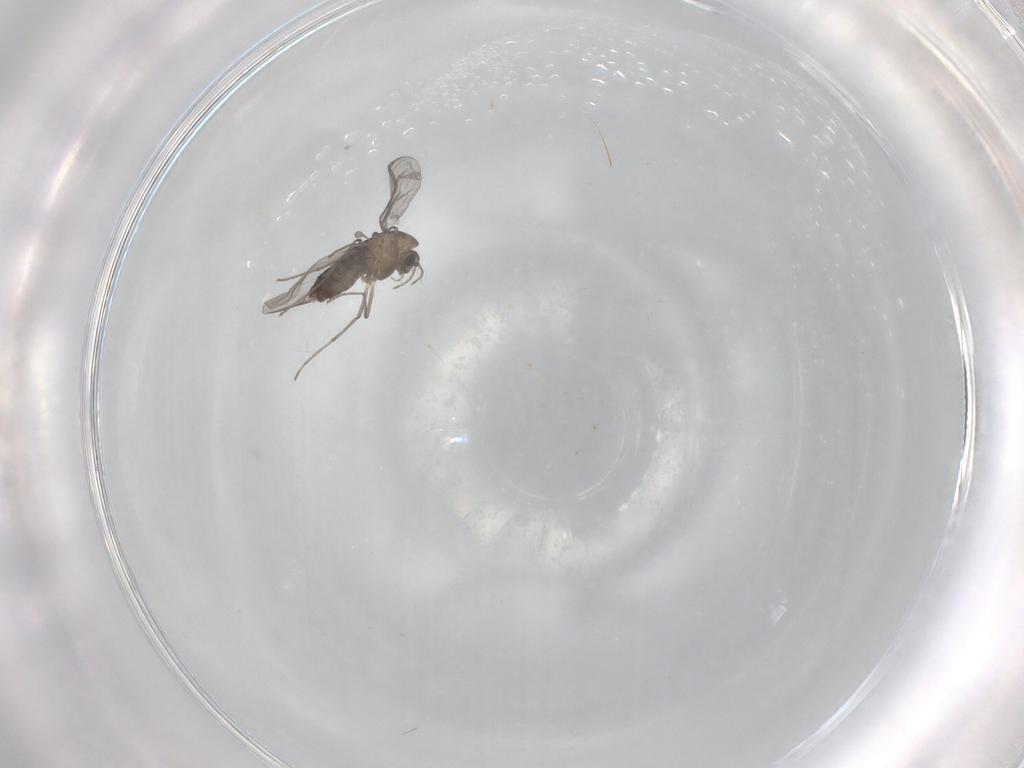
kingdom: Animalia
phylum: Arthropoda
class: Insecta
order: Diptera
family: Chironomidae
